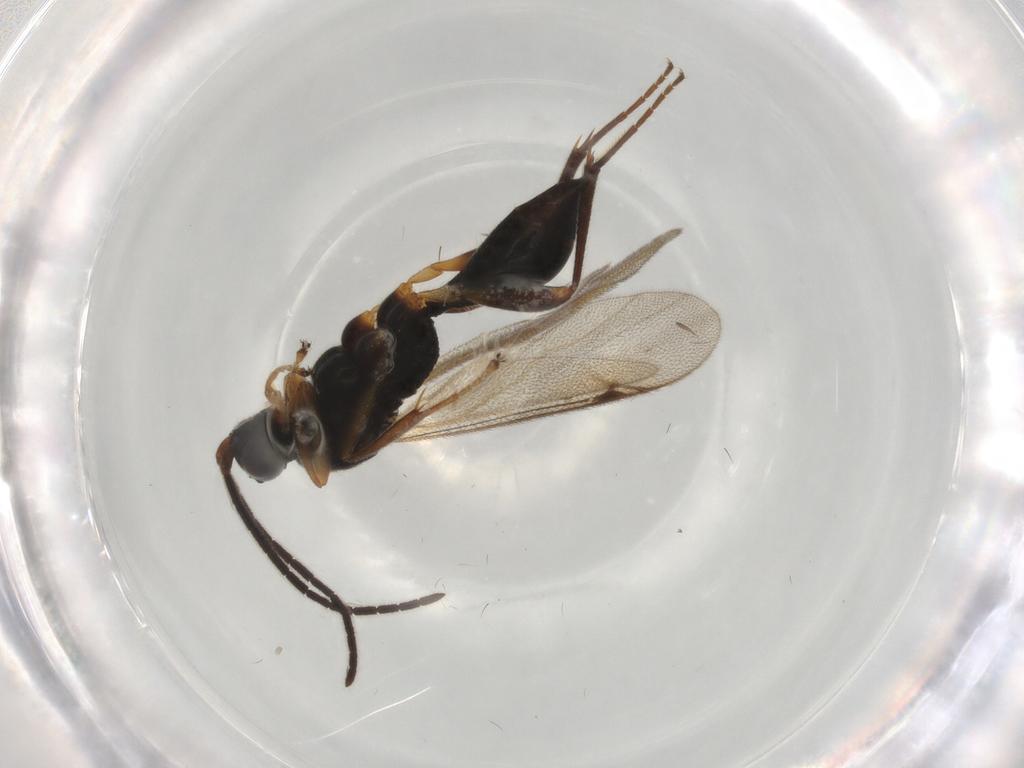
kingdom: Animalia
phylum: Arthropoda
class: Insecta
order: Hymenoptera
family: Proctotrupidae
